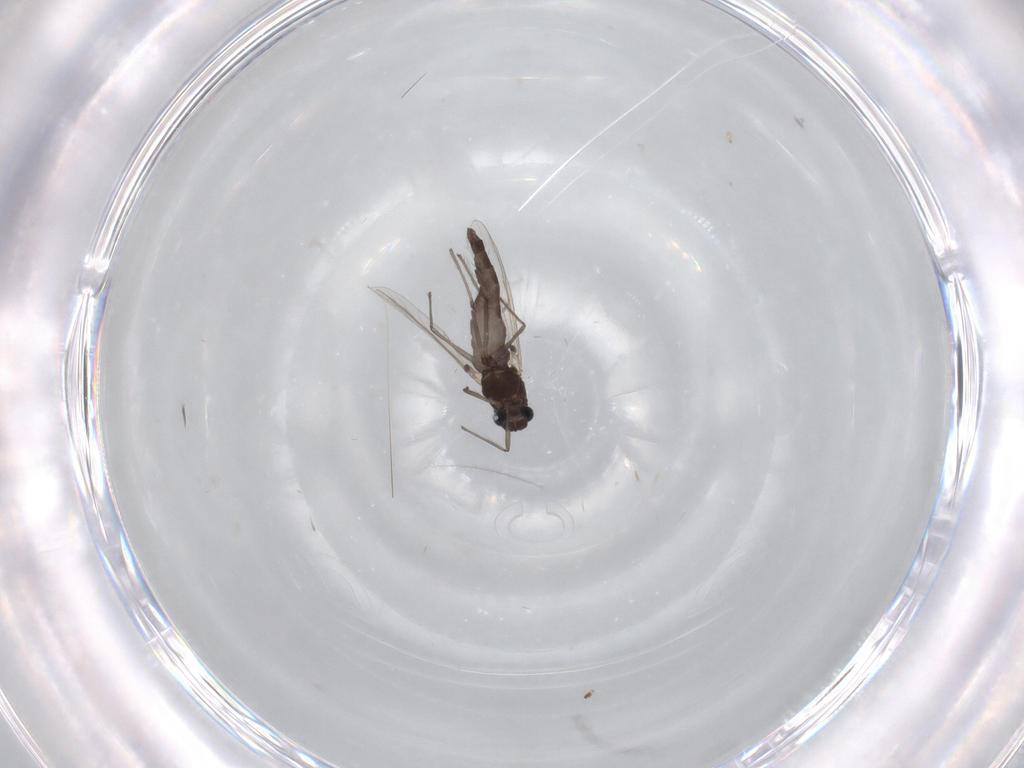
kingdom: Animalia
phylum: Arthropoda
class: Insecta
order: Diptera
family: Chironomidae
